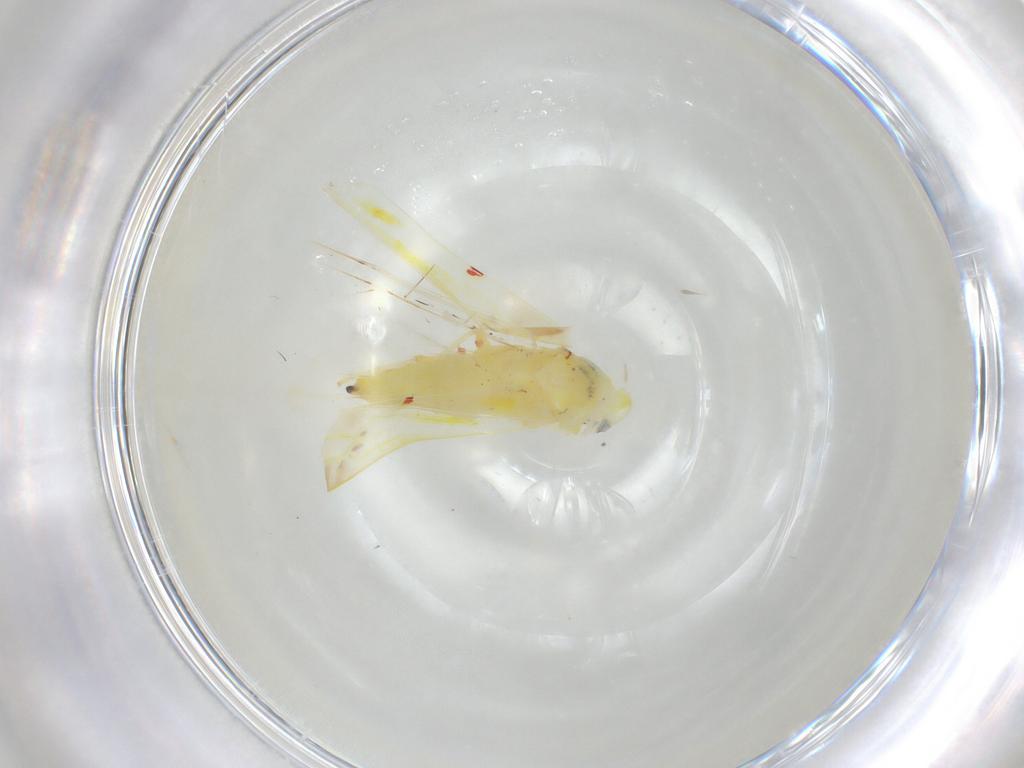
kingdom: Animalia
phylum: Arthropoda
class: Insecta
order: Hemiptera
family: Cicadellidae
